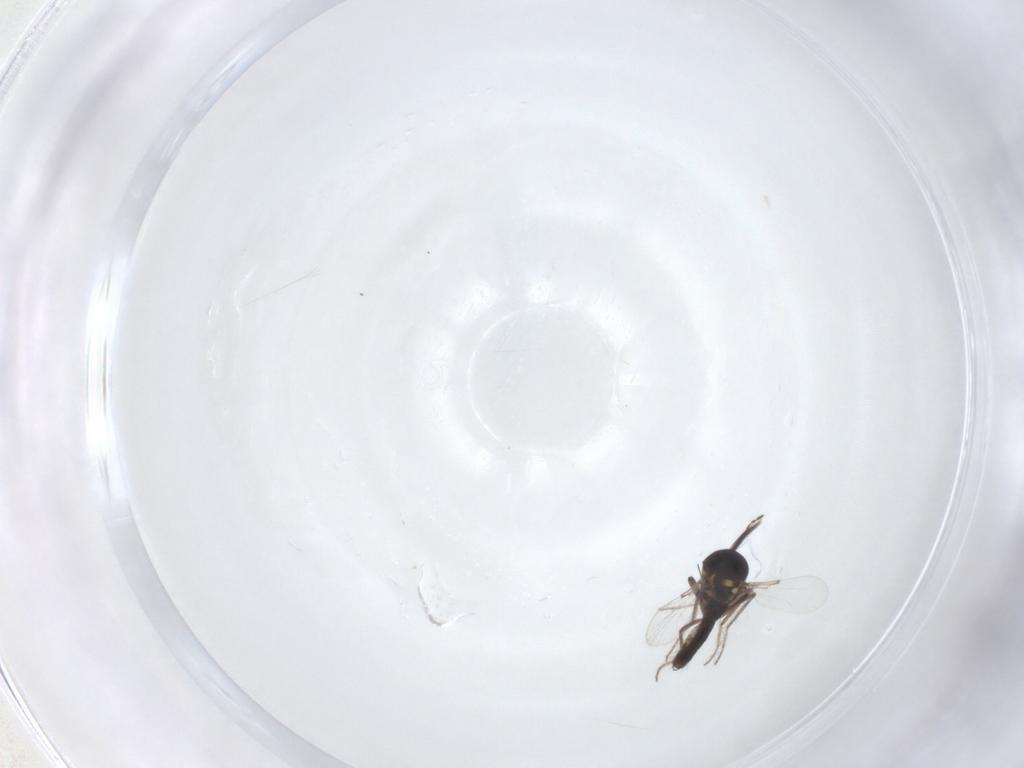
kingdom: Animalia
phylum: Arthropoda
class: Insecta
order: Diptera
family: Ceratopogonidae
